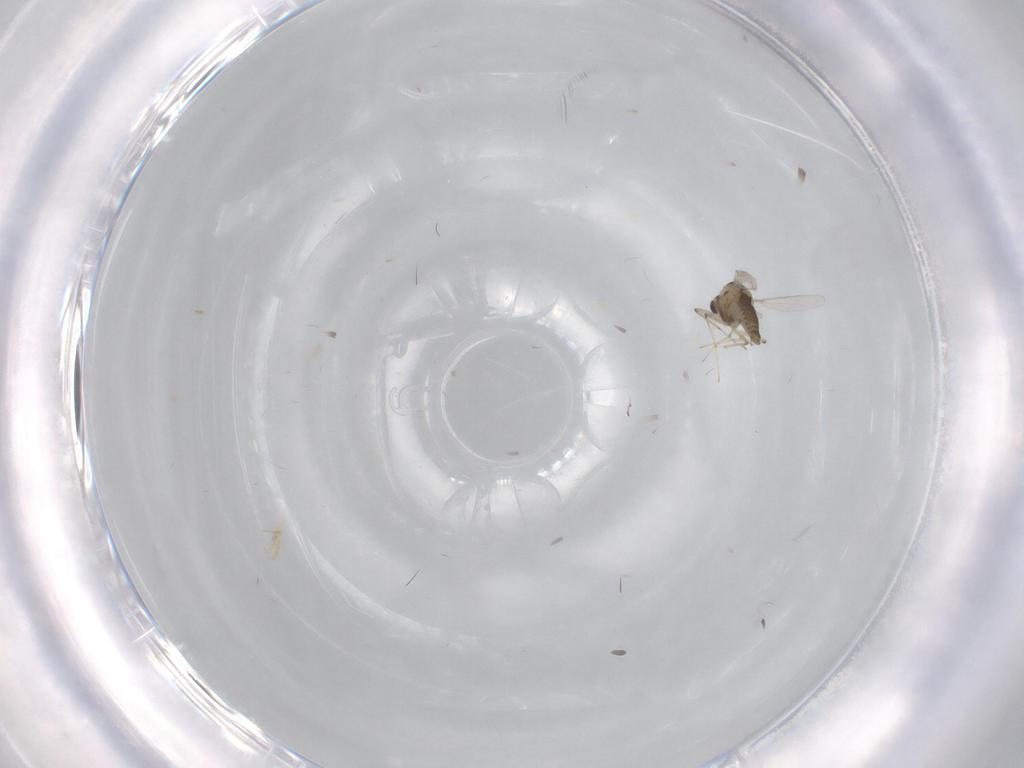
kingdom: Animalia
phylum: Arthropoda
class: Insecta
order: Diptera
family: Chironomidae
